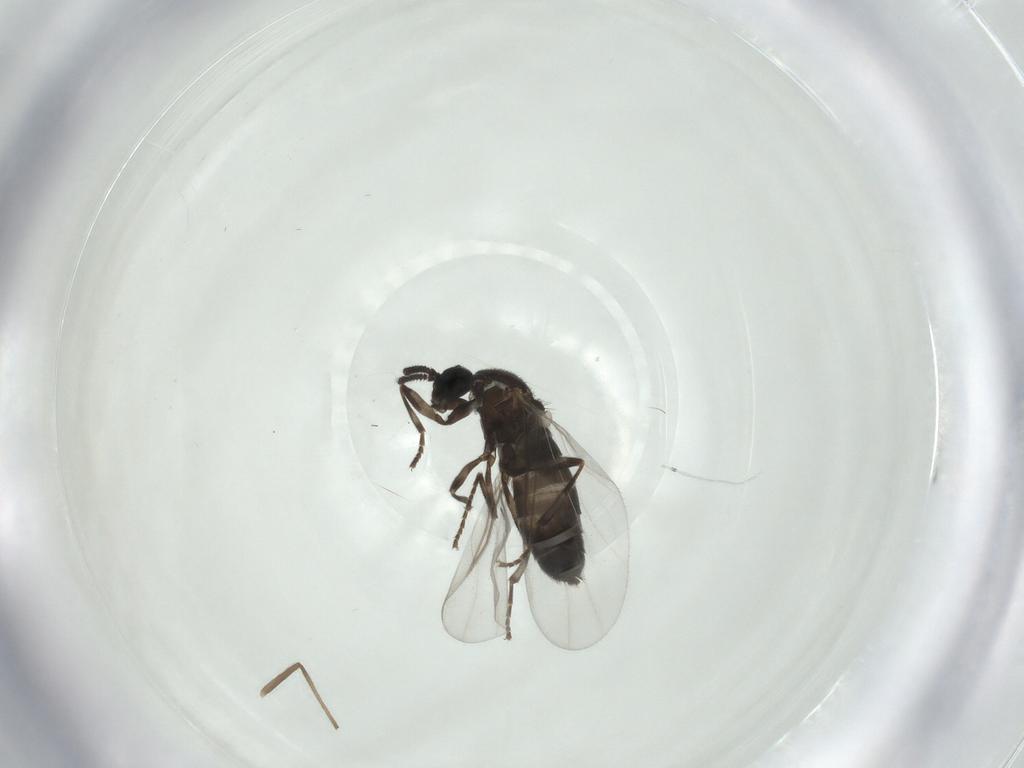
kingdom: Animalia
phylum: Arthropoda
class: Insecta
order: Diptera
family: Scatopsidae
